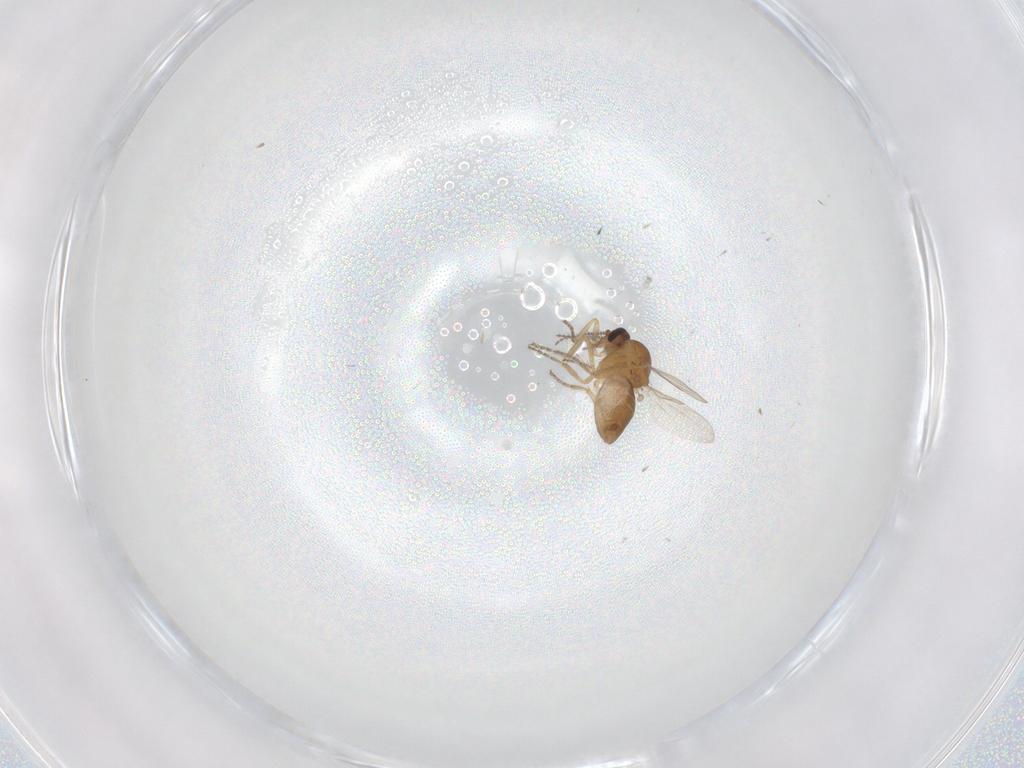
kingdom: Animalia
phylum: Arthropoda
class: Insecta
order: Diptera
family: Ceratopogonidae
